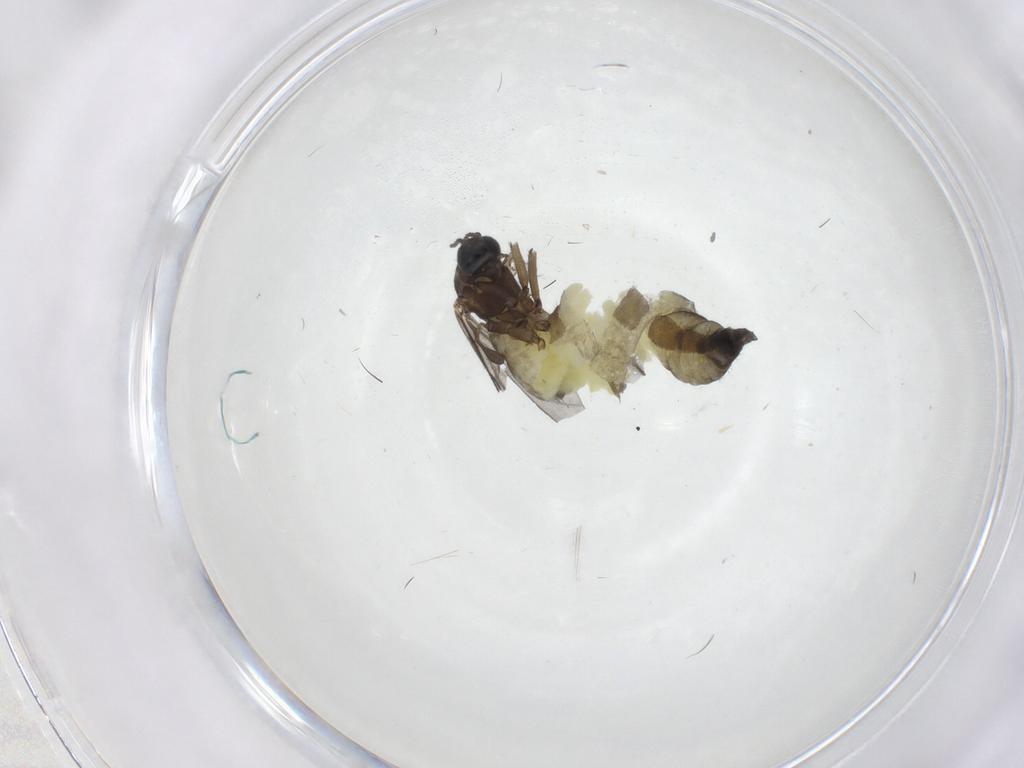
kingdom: Animalia
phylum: Arthropoda
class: Insecta
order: Diptera
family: Sciaridae
